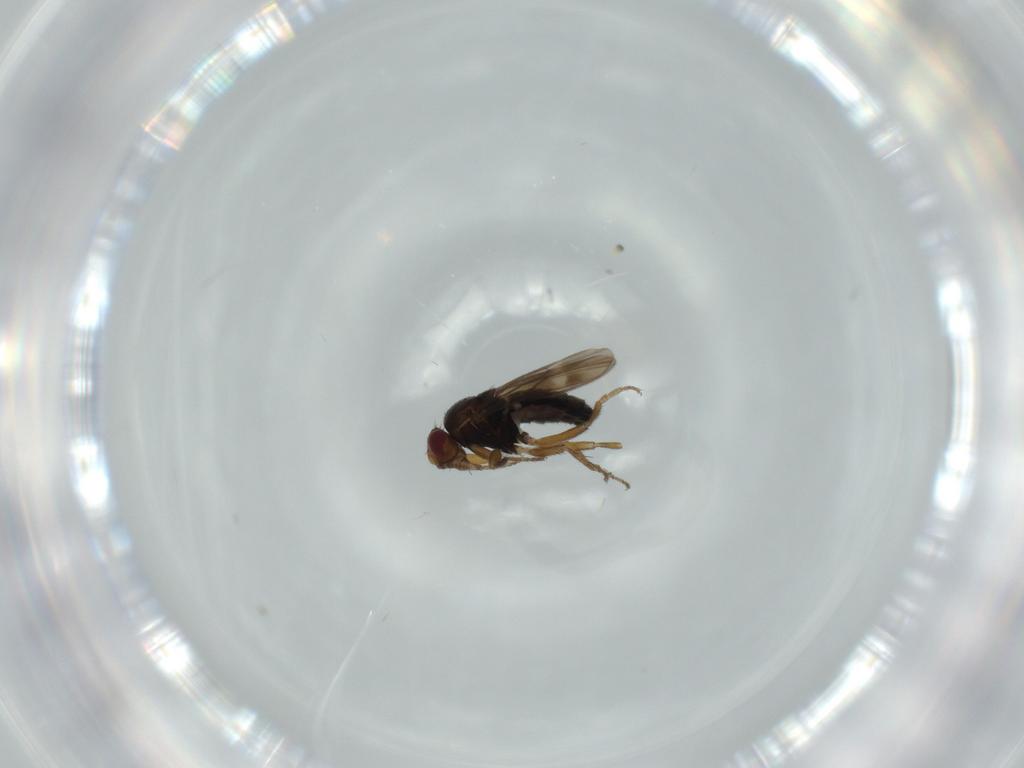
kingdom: Animalia
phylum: Arthropoda
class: Insecta
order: Diptera
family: Sphaeroceridae
